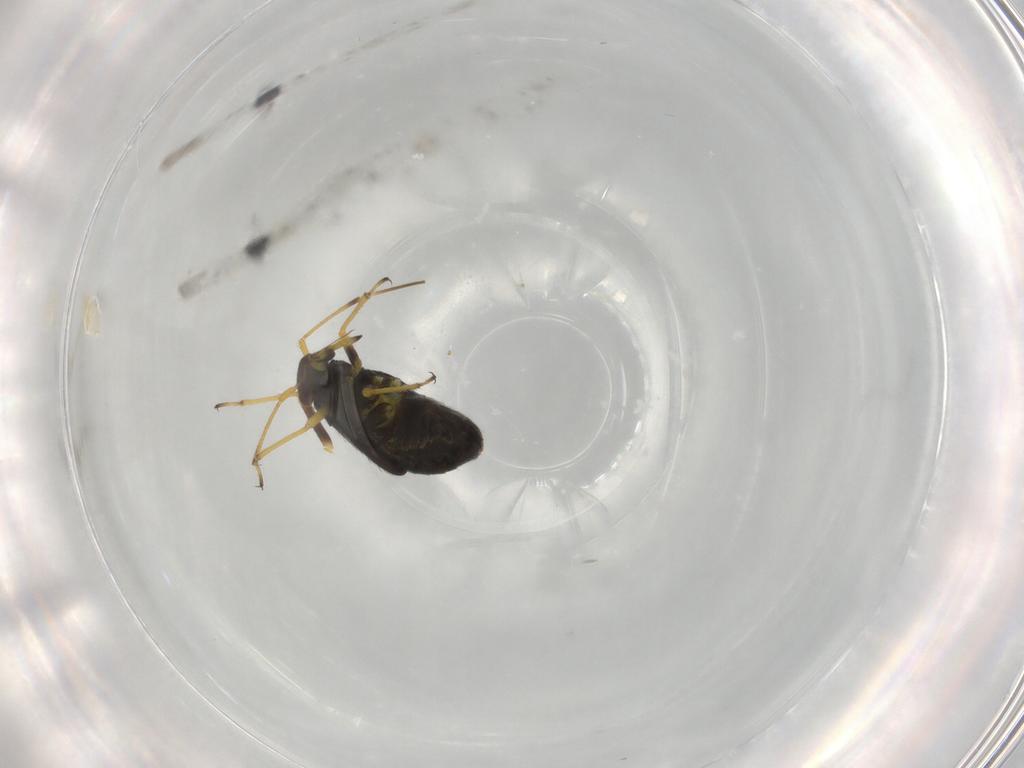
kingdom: Animalia
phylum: Arthropoda
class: Insecta
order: Hemiptera
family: Miridae
